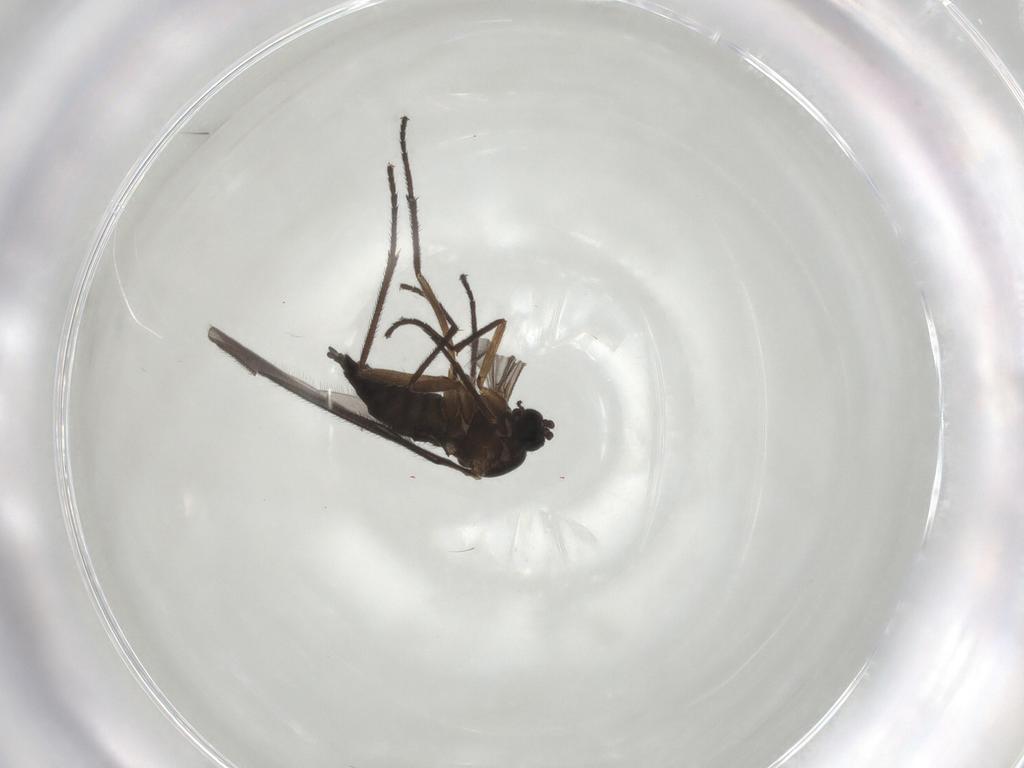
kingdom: Animalia
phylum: Arthropoda
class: Insecta
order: Diptera
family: Sciaridae
